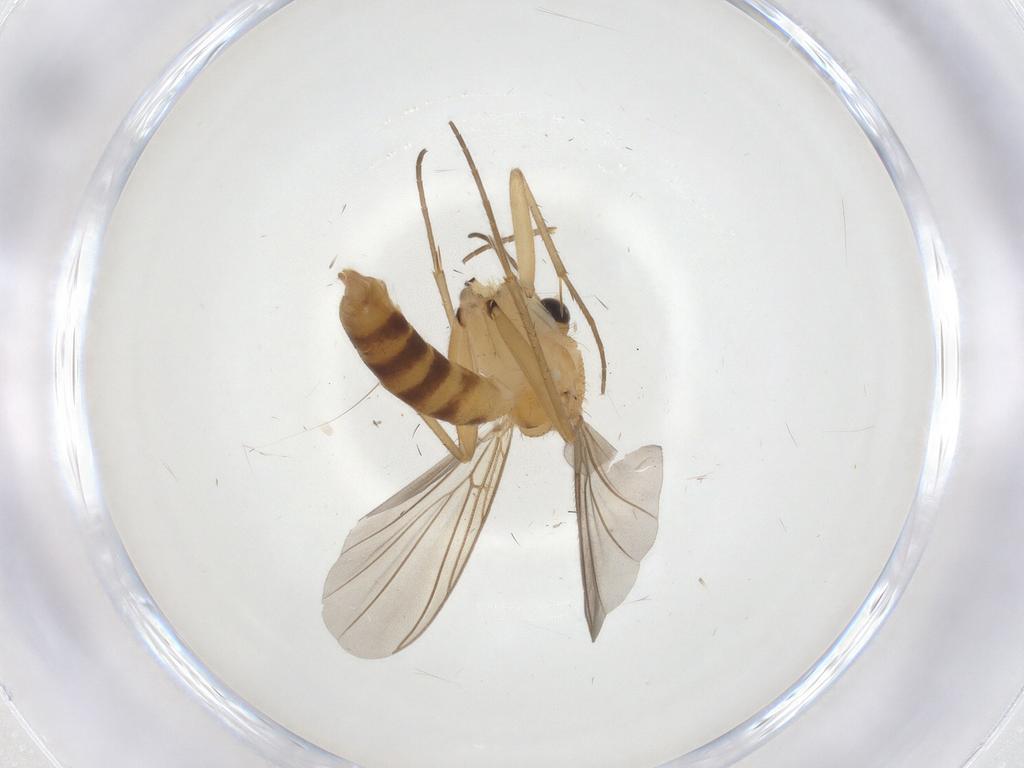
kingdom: Animalia
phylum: Arthropoda
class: Insecta
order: Diptera
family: Mycetophilidae
